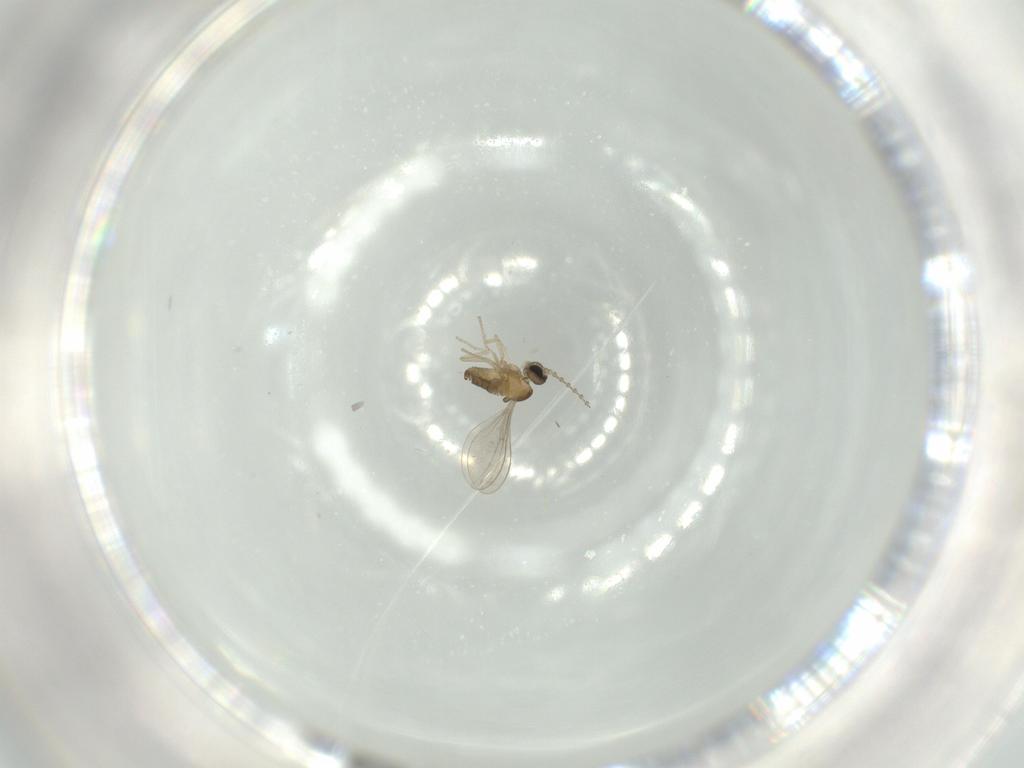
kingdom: Animalia
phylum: Arthropoda
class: Insecta
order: Diptera
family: Cecidomyiidae
